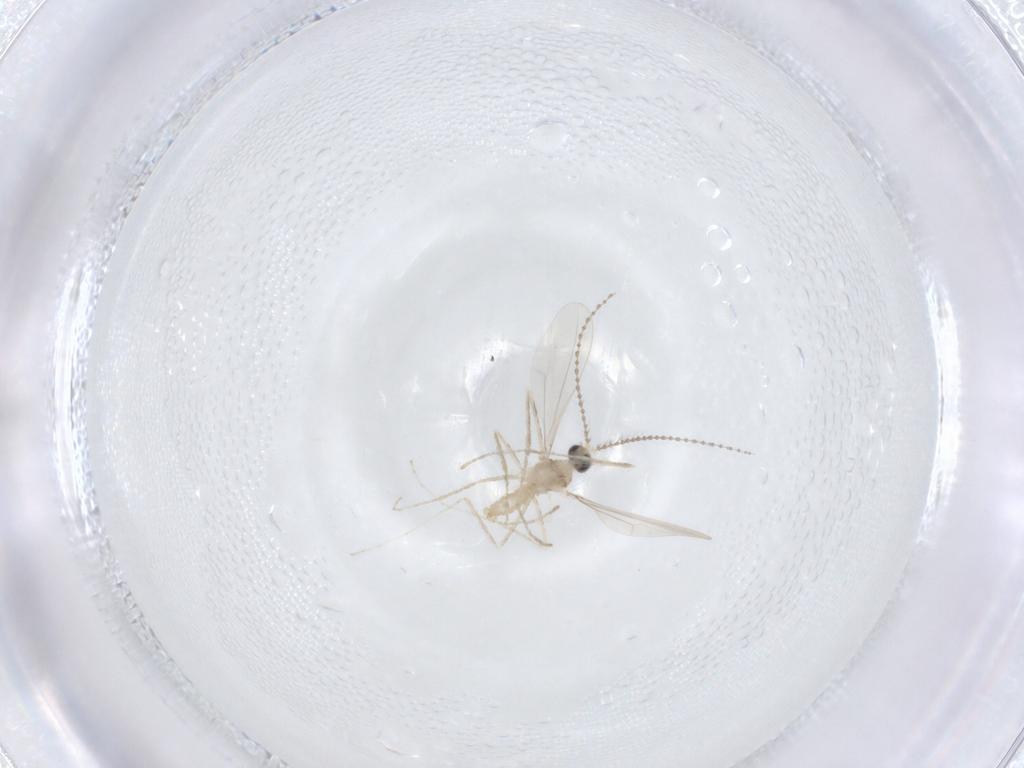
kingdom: Animalia
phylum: Arthropoda
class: Insecta
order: Diptera
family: Cecidomyiidae
